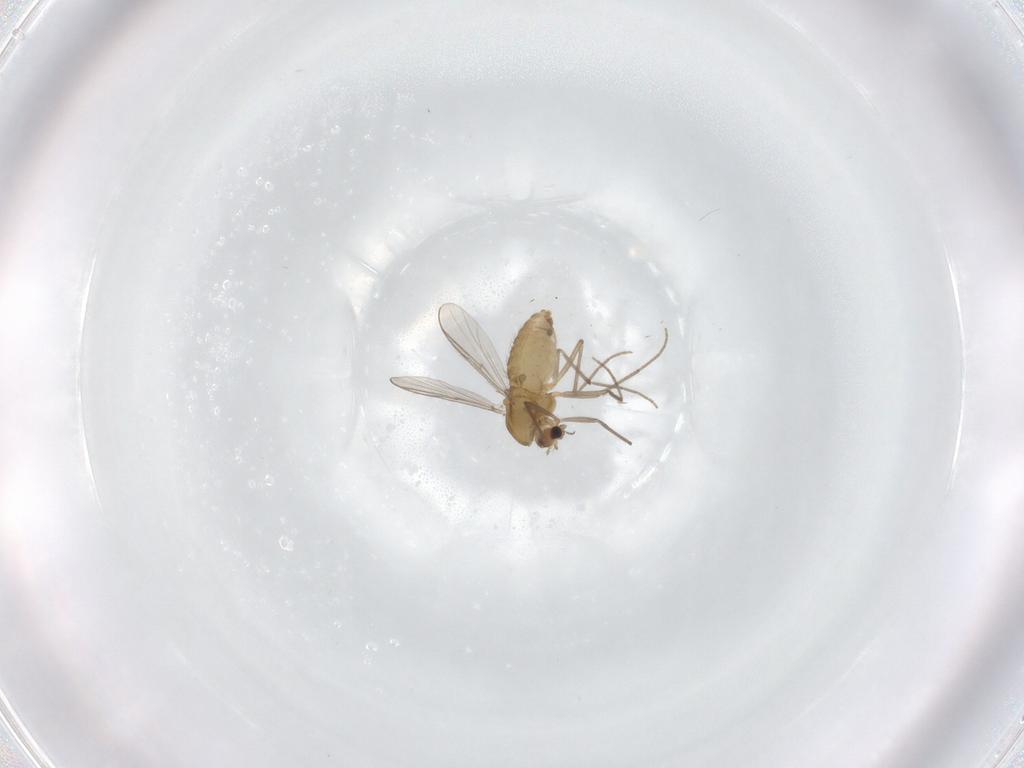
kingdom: Animalia
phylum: Arthropoda
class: Insecta
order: Diptera
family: Chironomidae
